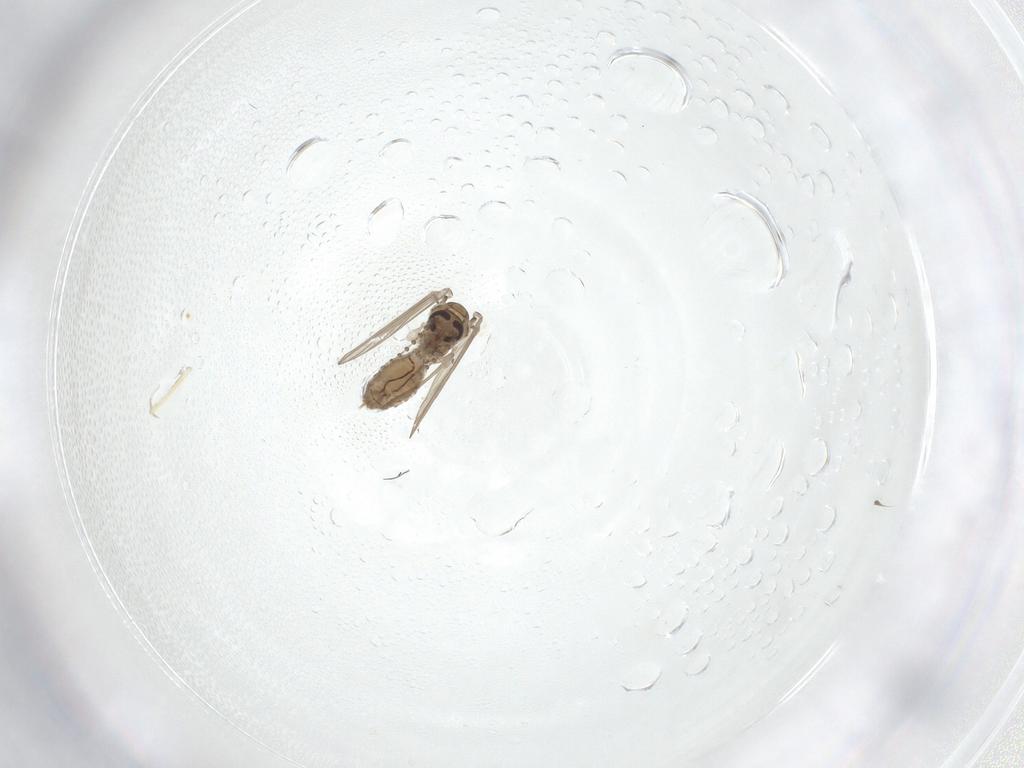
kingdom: Animalia
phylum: Arthropoda
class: Insecta
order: Diptera
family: Psychodidae
